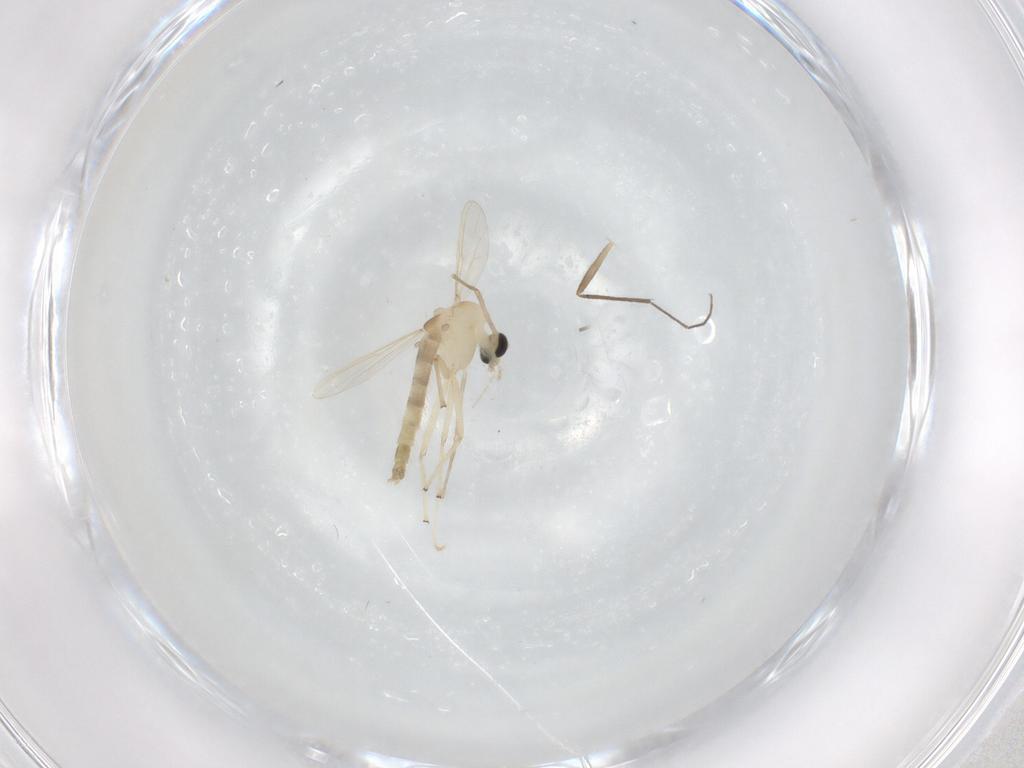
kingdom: Animalia
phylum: Arthropoda
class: Insecta
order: Diptera
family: Chironomidae
